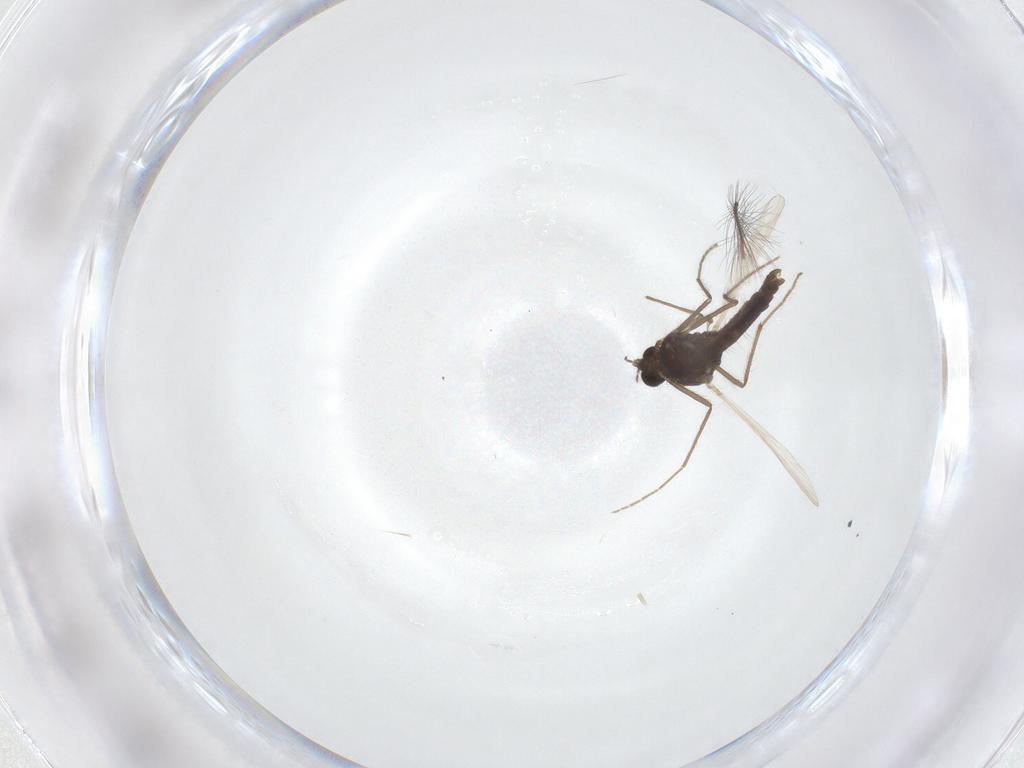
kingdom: Animalia
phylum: Arthropoda
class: Insecta
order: Diptera
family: Chironomidae
